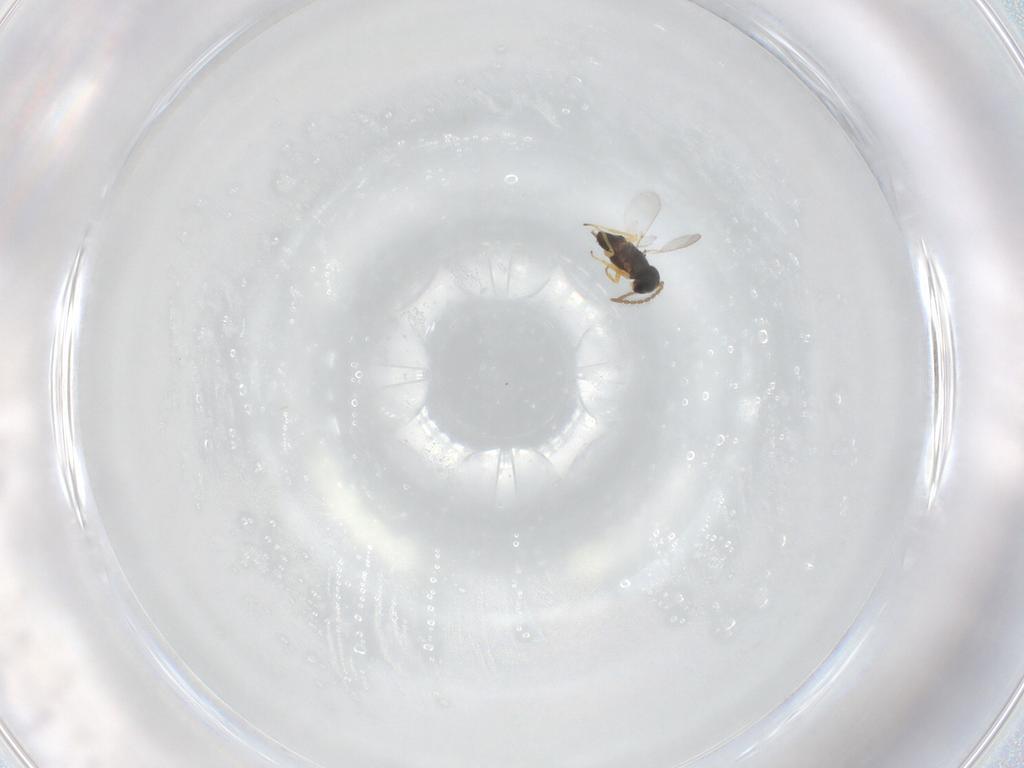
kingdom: Animalia
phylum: Arthropoda
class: Insecta
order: Hymenoptera
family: Encyrtidae
